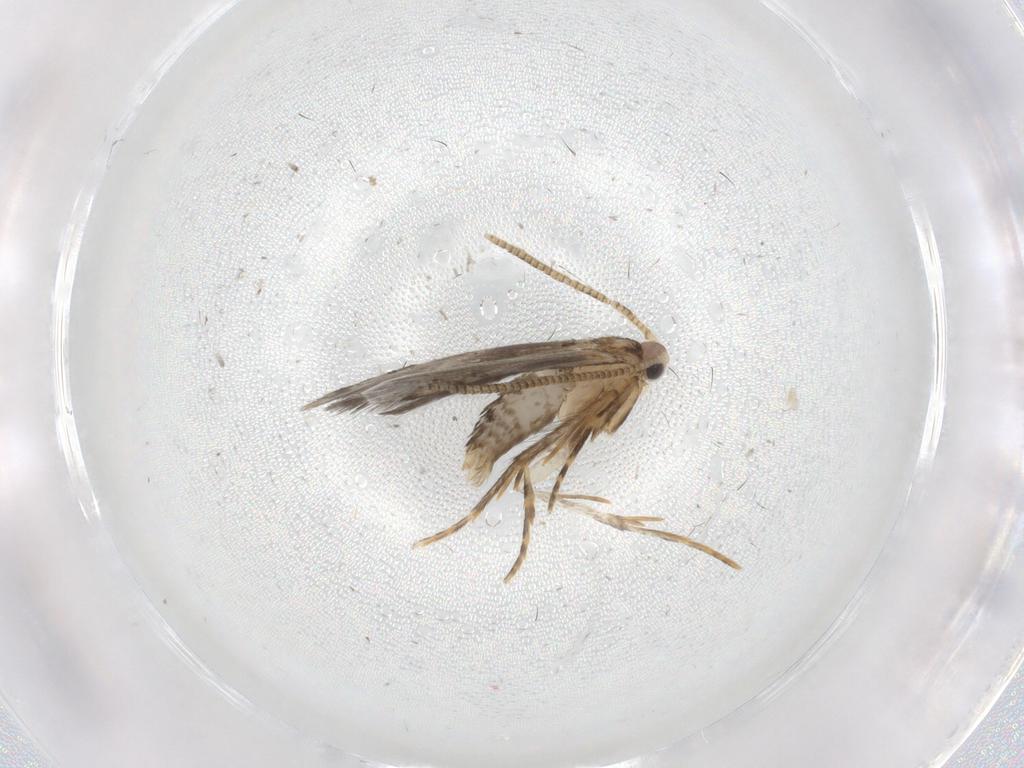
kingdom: Animalia
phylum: Arthropoda
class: Insecta
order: Lepidoptera
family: Tineidae
